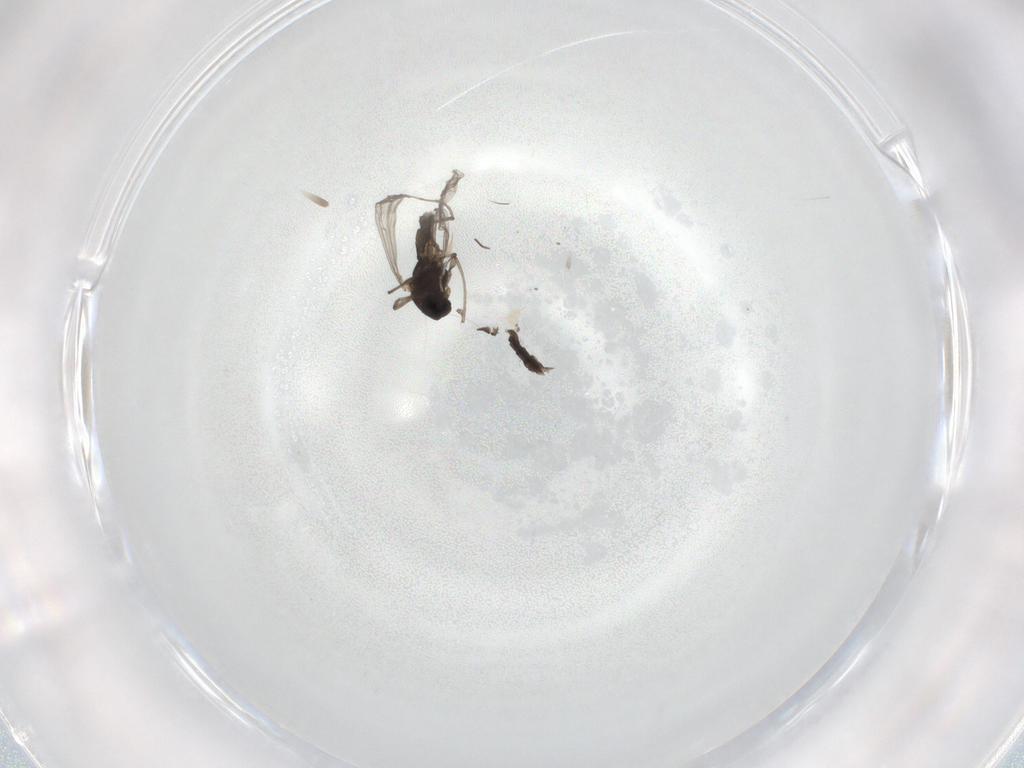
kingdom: Animalia
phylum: Arthropoda
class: Insecta
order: Diptera
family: Chironomidae
